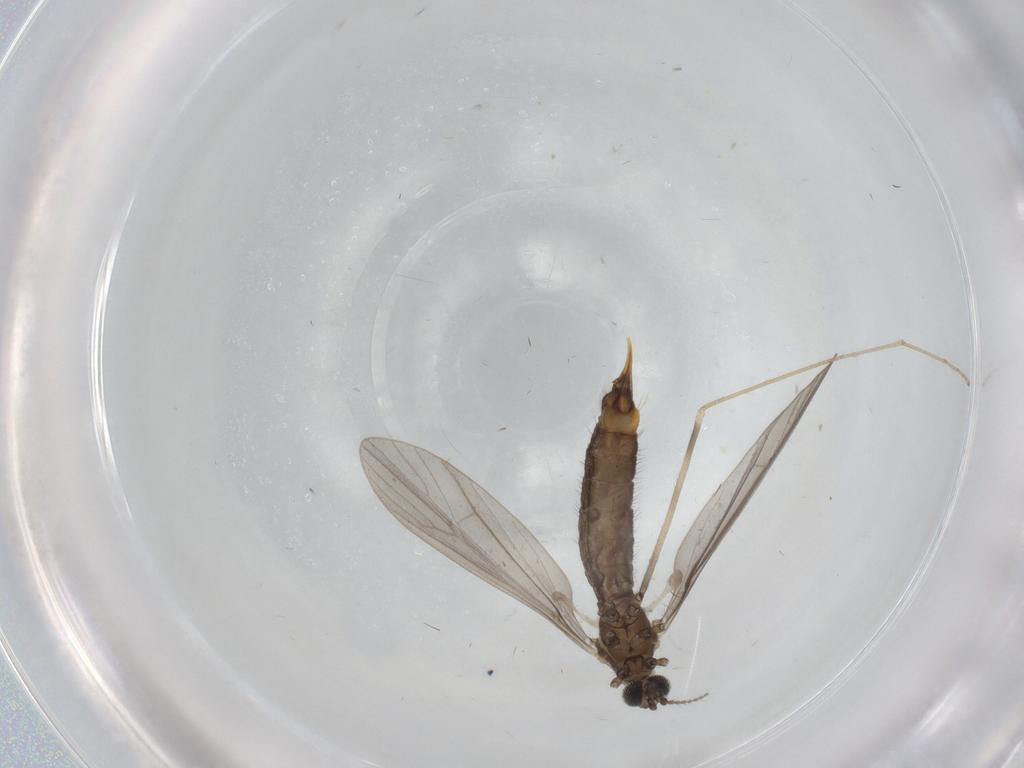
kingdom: Animalia
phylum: Arthropoda
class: Insecta
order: Diptera
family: Limoniidae
